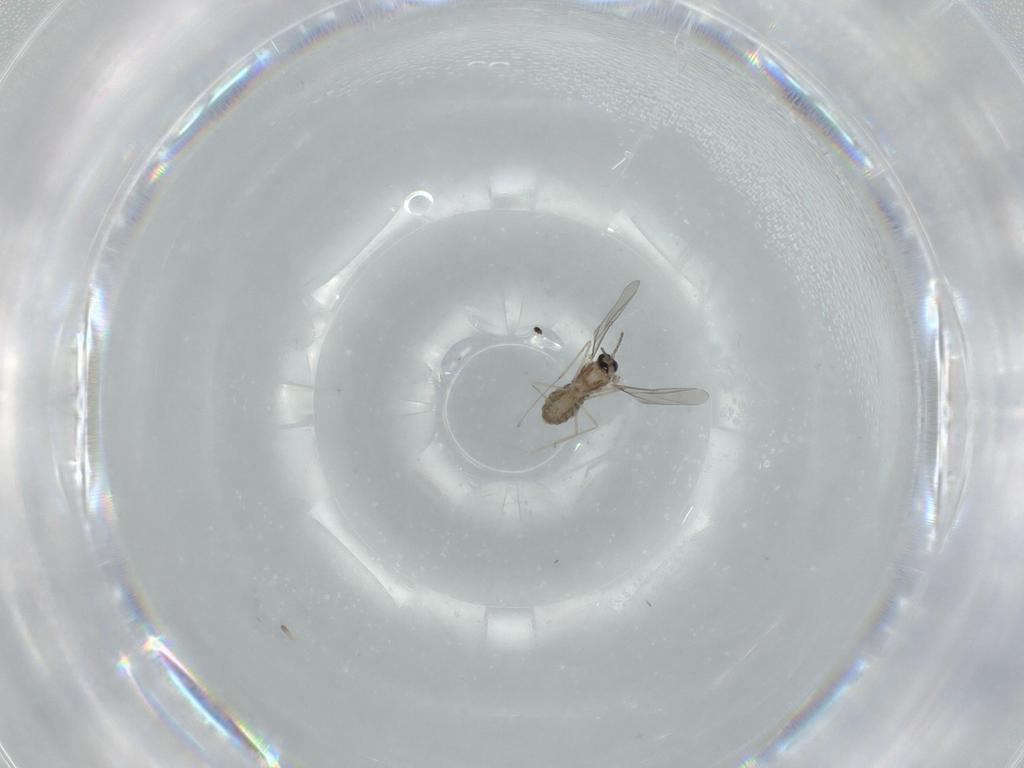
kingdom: Animalia
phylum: Arthropoda
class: Insecta
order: Diptera
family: Cecidomyiidae
